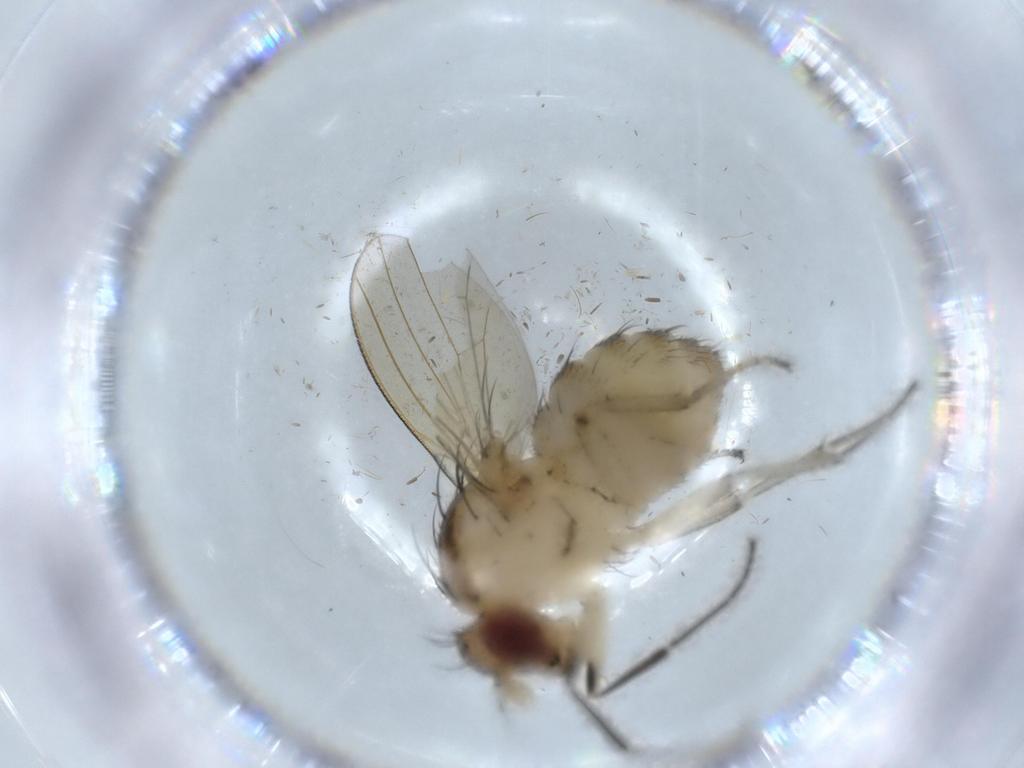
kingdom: Animalia
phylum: Arthropoda
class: Insecta
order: Diptera
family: Lauxaniidae
